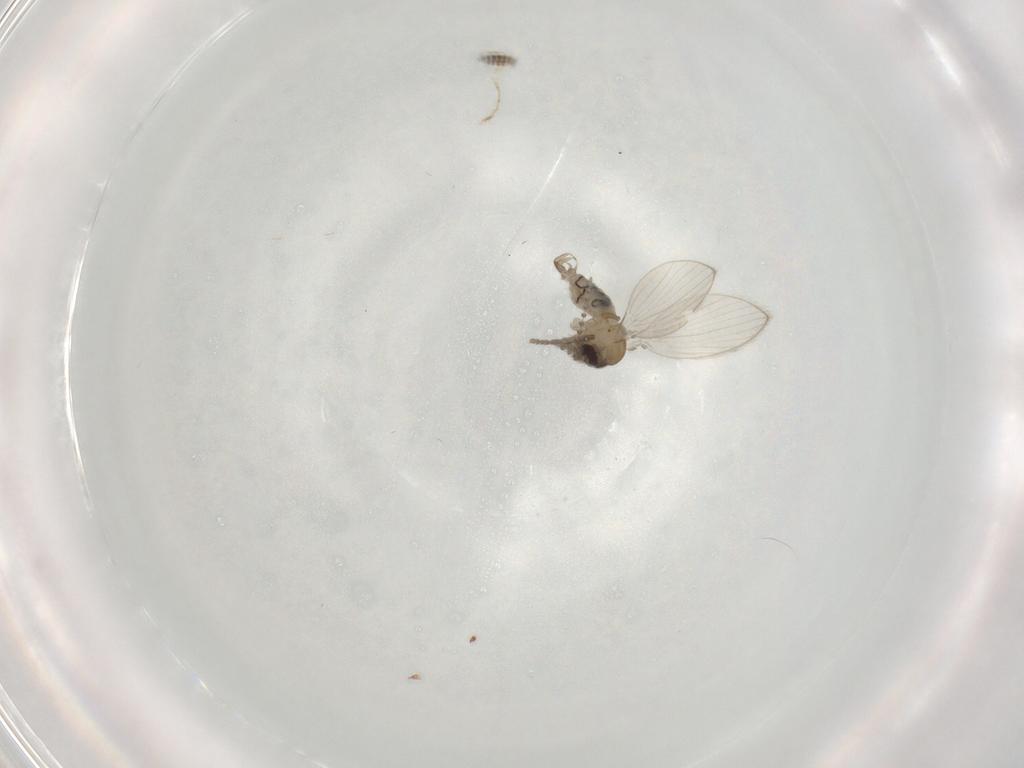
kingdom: Animalia
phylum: Arthropoda
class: Insecta
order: Diptera
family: Psychodidae
